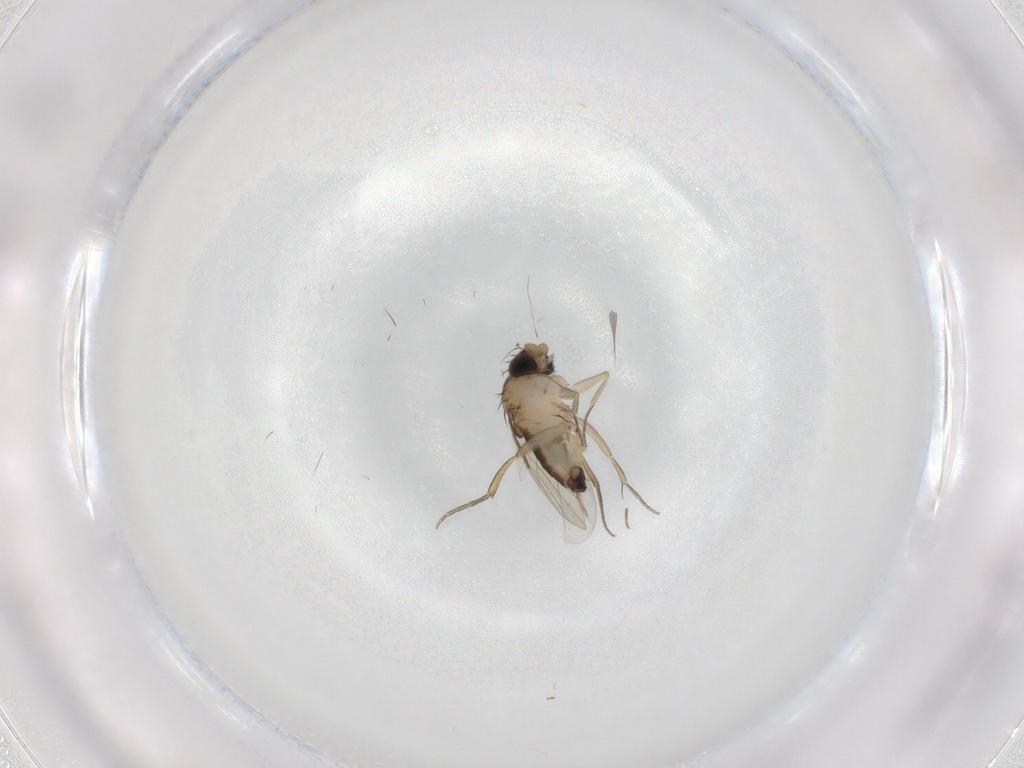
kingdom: Animalia
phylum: Arthropoda
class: Insecta
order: Diptera
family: Phoridae
